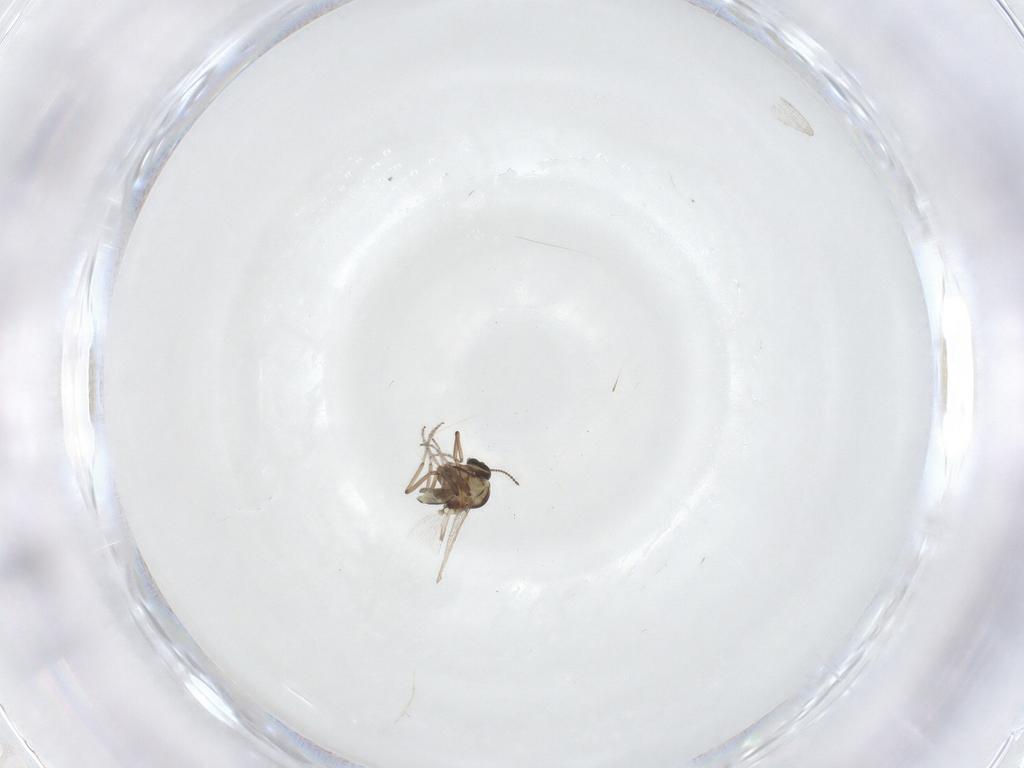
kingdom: Animalia
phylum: Arthropoda
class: Insecta
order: Diptera
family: Ceratopogonidae
